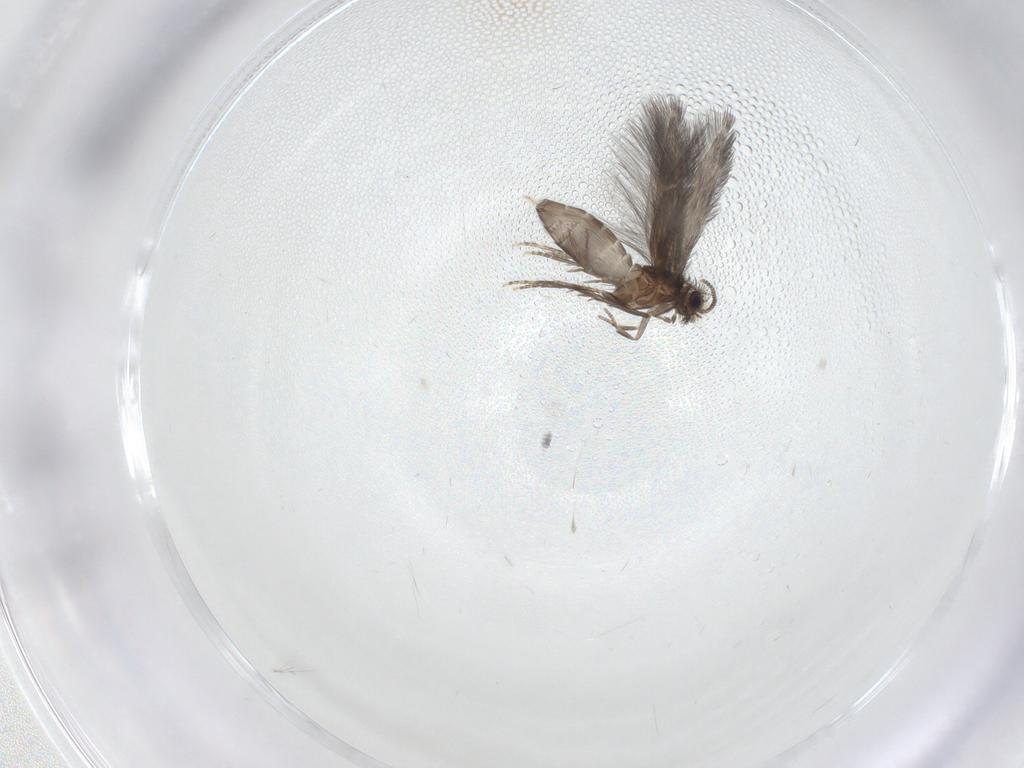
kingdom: Animalia
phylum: Arthropoda
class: Insecta
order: Trichoptera
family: Hydroptilidae
